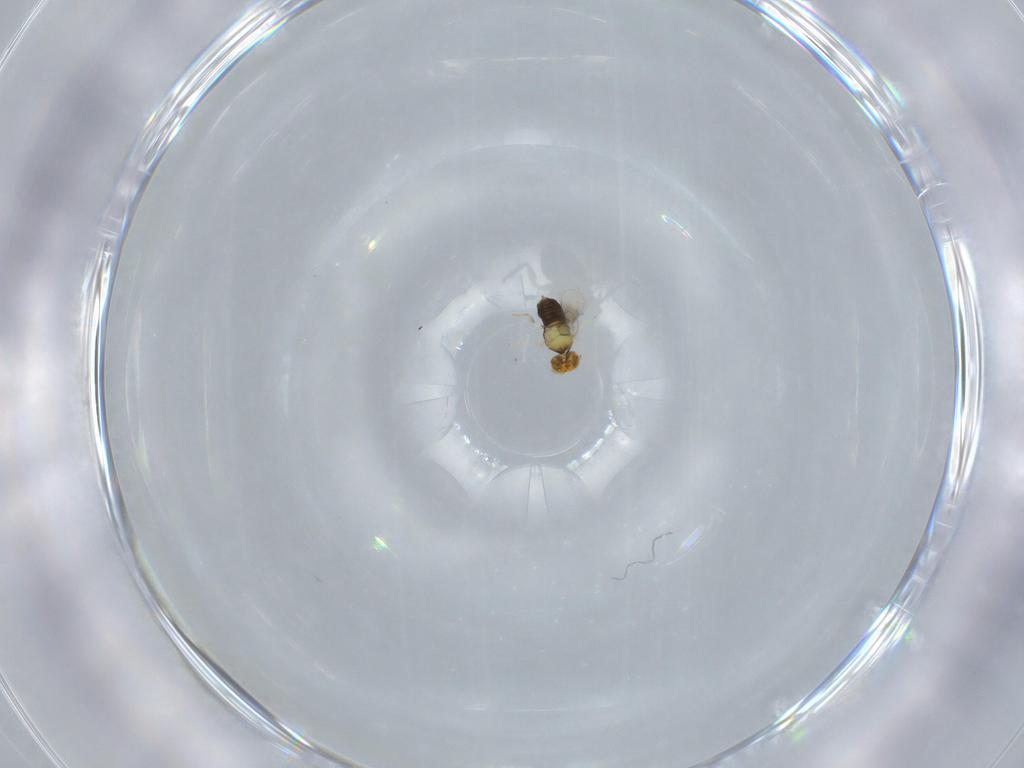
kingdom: Animalia
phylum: Arthropoda
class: Insecta
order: Hymenoptera
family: Aphelinidae
